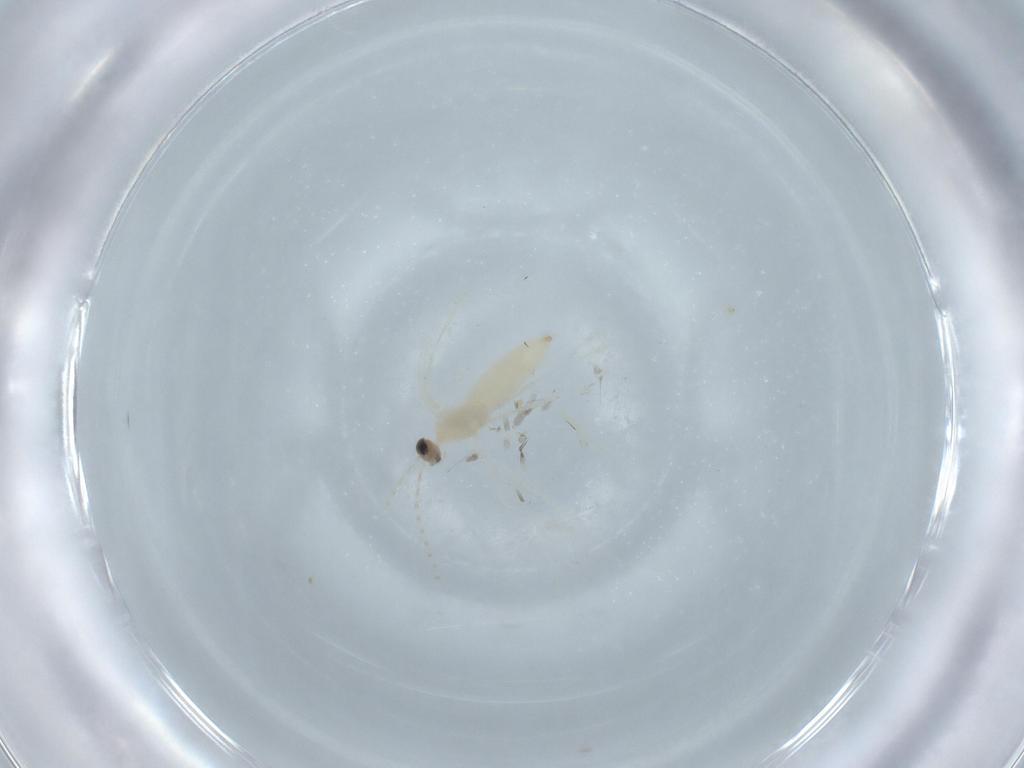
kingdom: Animalia
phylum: Arthropoda
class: Insecta
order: Diptera
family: Cecidomyiidae
